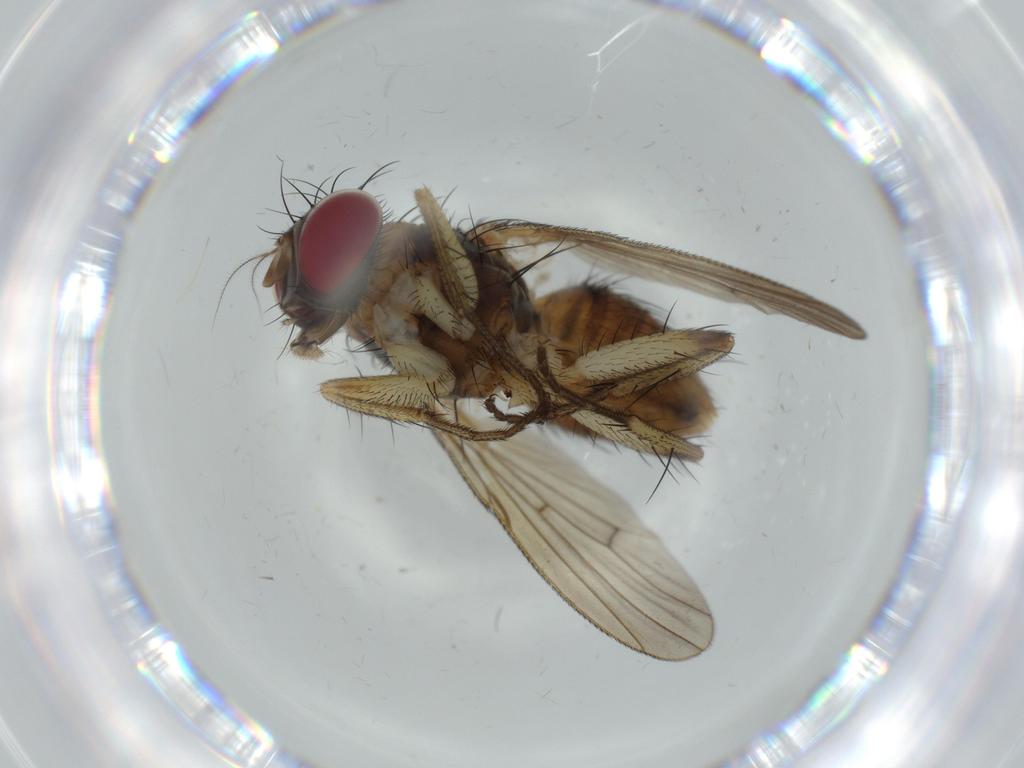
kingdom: Animalia
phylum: Arthropoda
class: Insecta
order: Diptera
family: Muscidae
